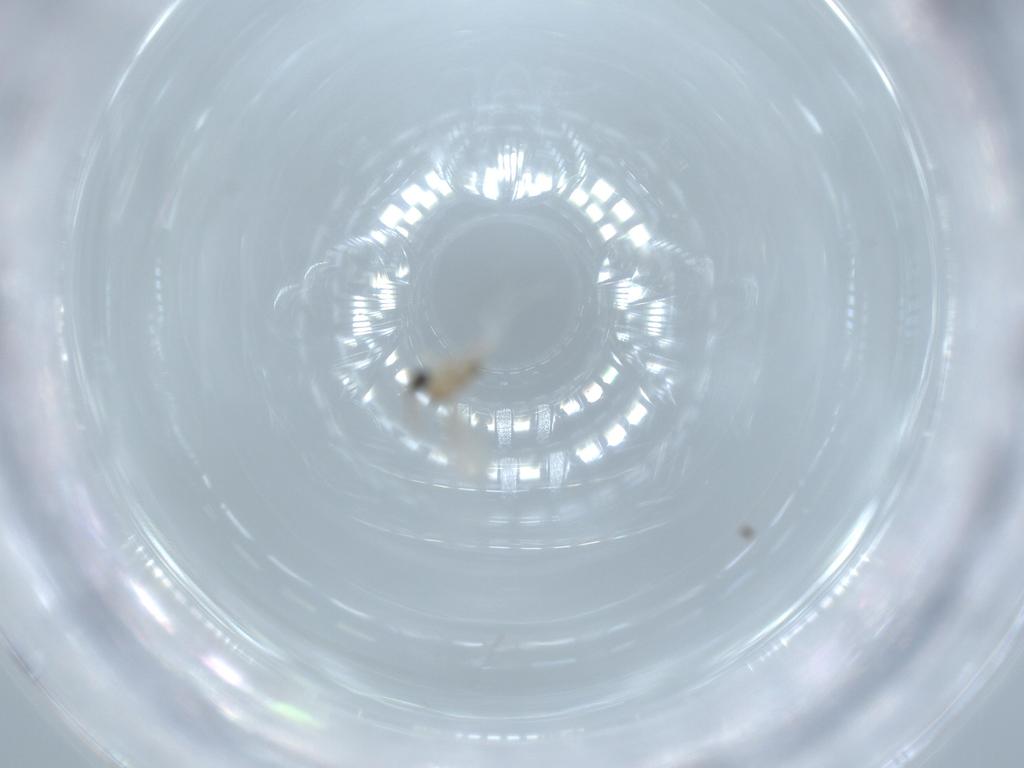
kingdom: Animalia
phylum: Arthropoda
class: Insecta
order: Diptera
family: Cecidomyiidae
